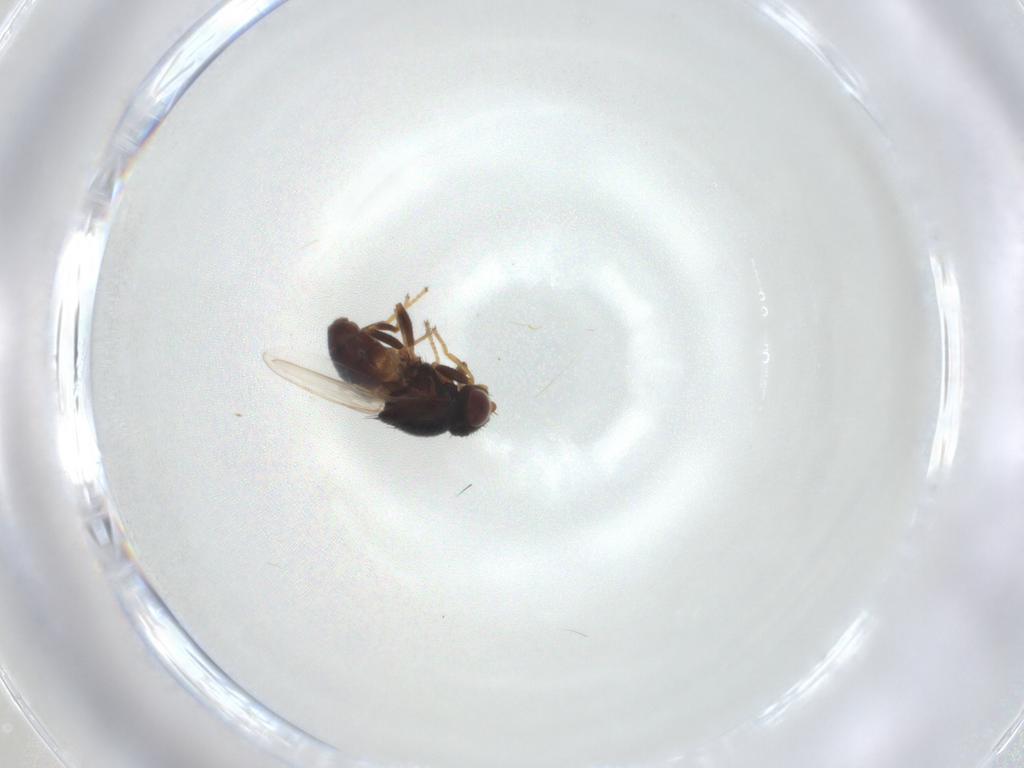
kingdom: Animalia
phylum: Arthropoda
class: Insecta
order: Diptera
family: Chloropidae
